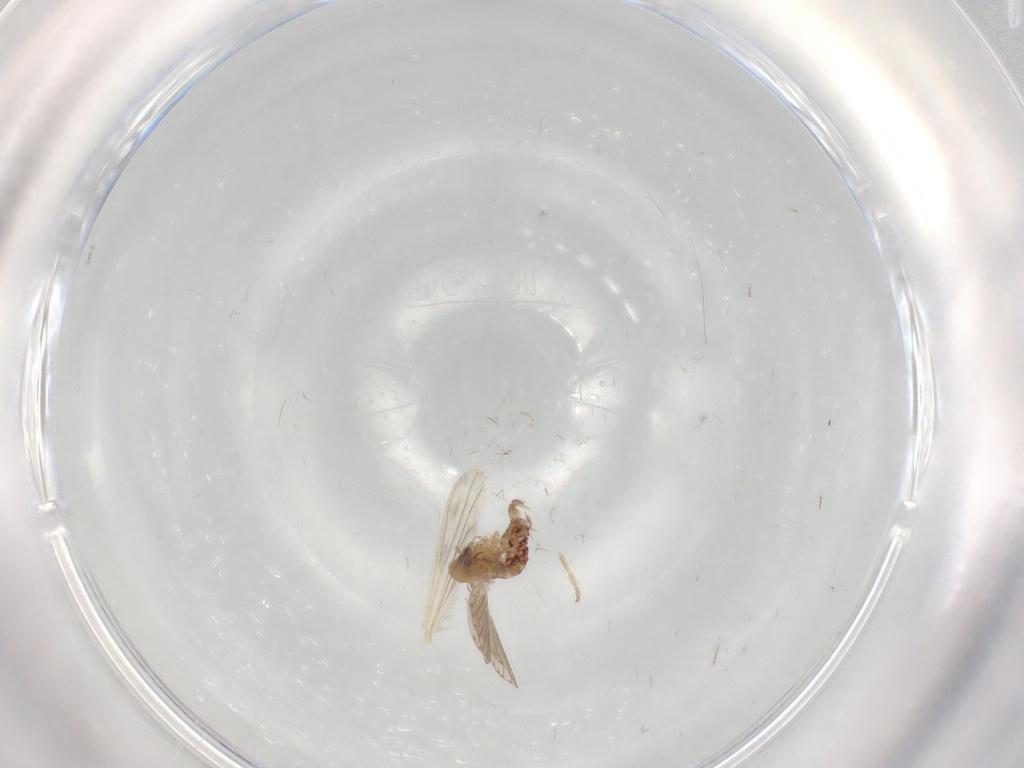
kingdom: Animalia
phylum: Arthropoda
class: Insecta
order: Diptera
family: Psychodidae
